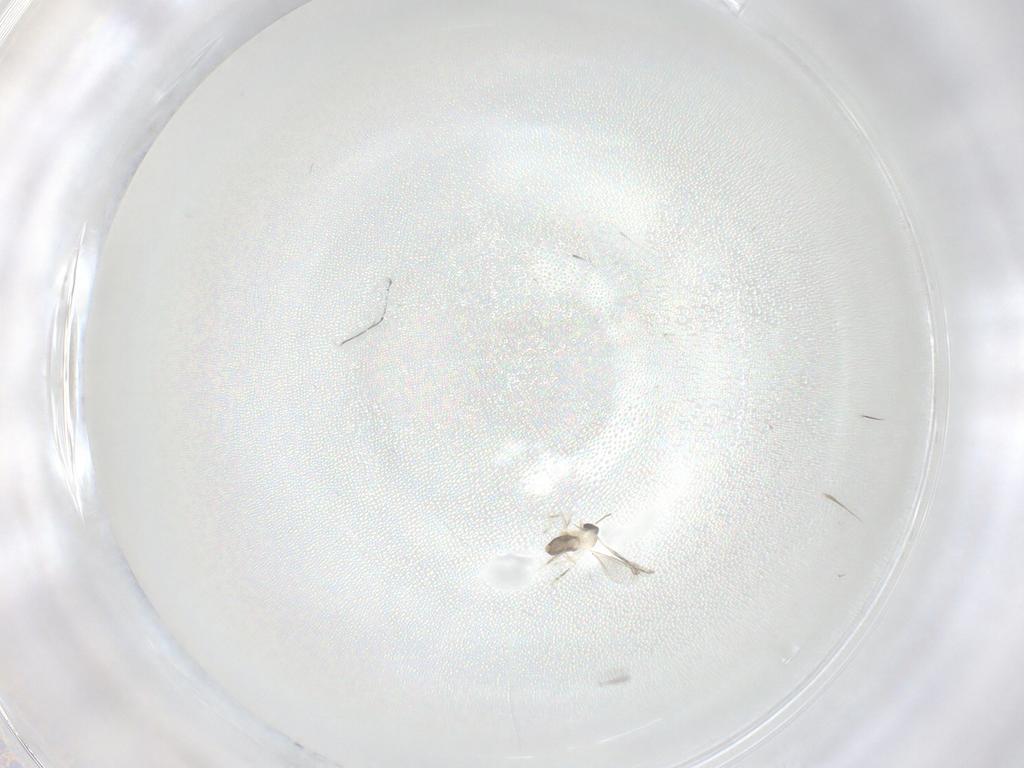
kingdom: Animalia
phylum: Arthropoda
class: Insecta
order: Diptera
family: Cecidomyiidae
